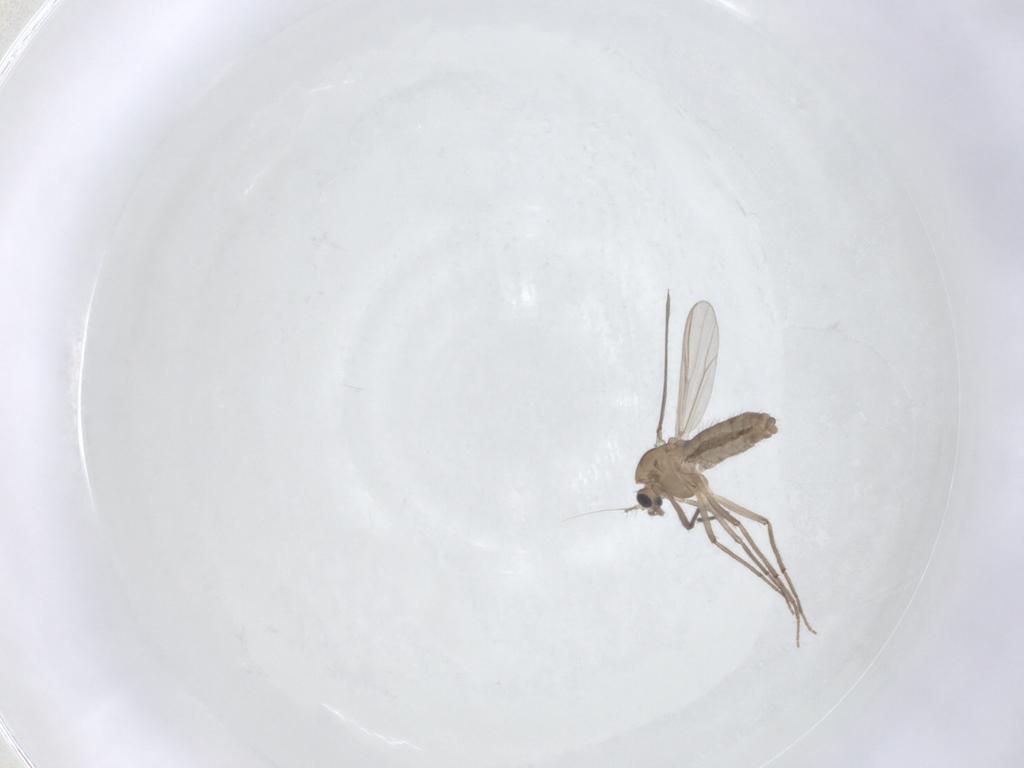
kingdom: Animalia
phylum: Arthropoda
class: Insecta
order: Diptera
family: Chironomidae
